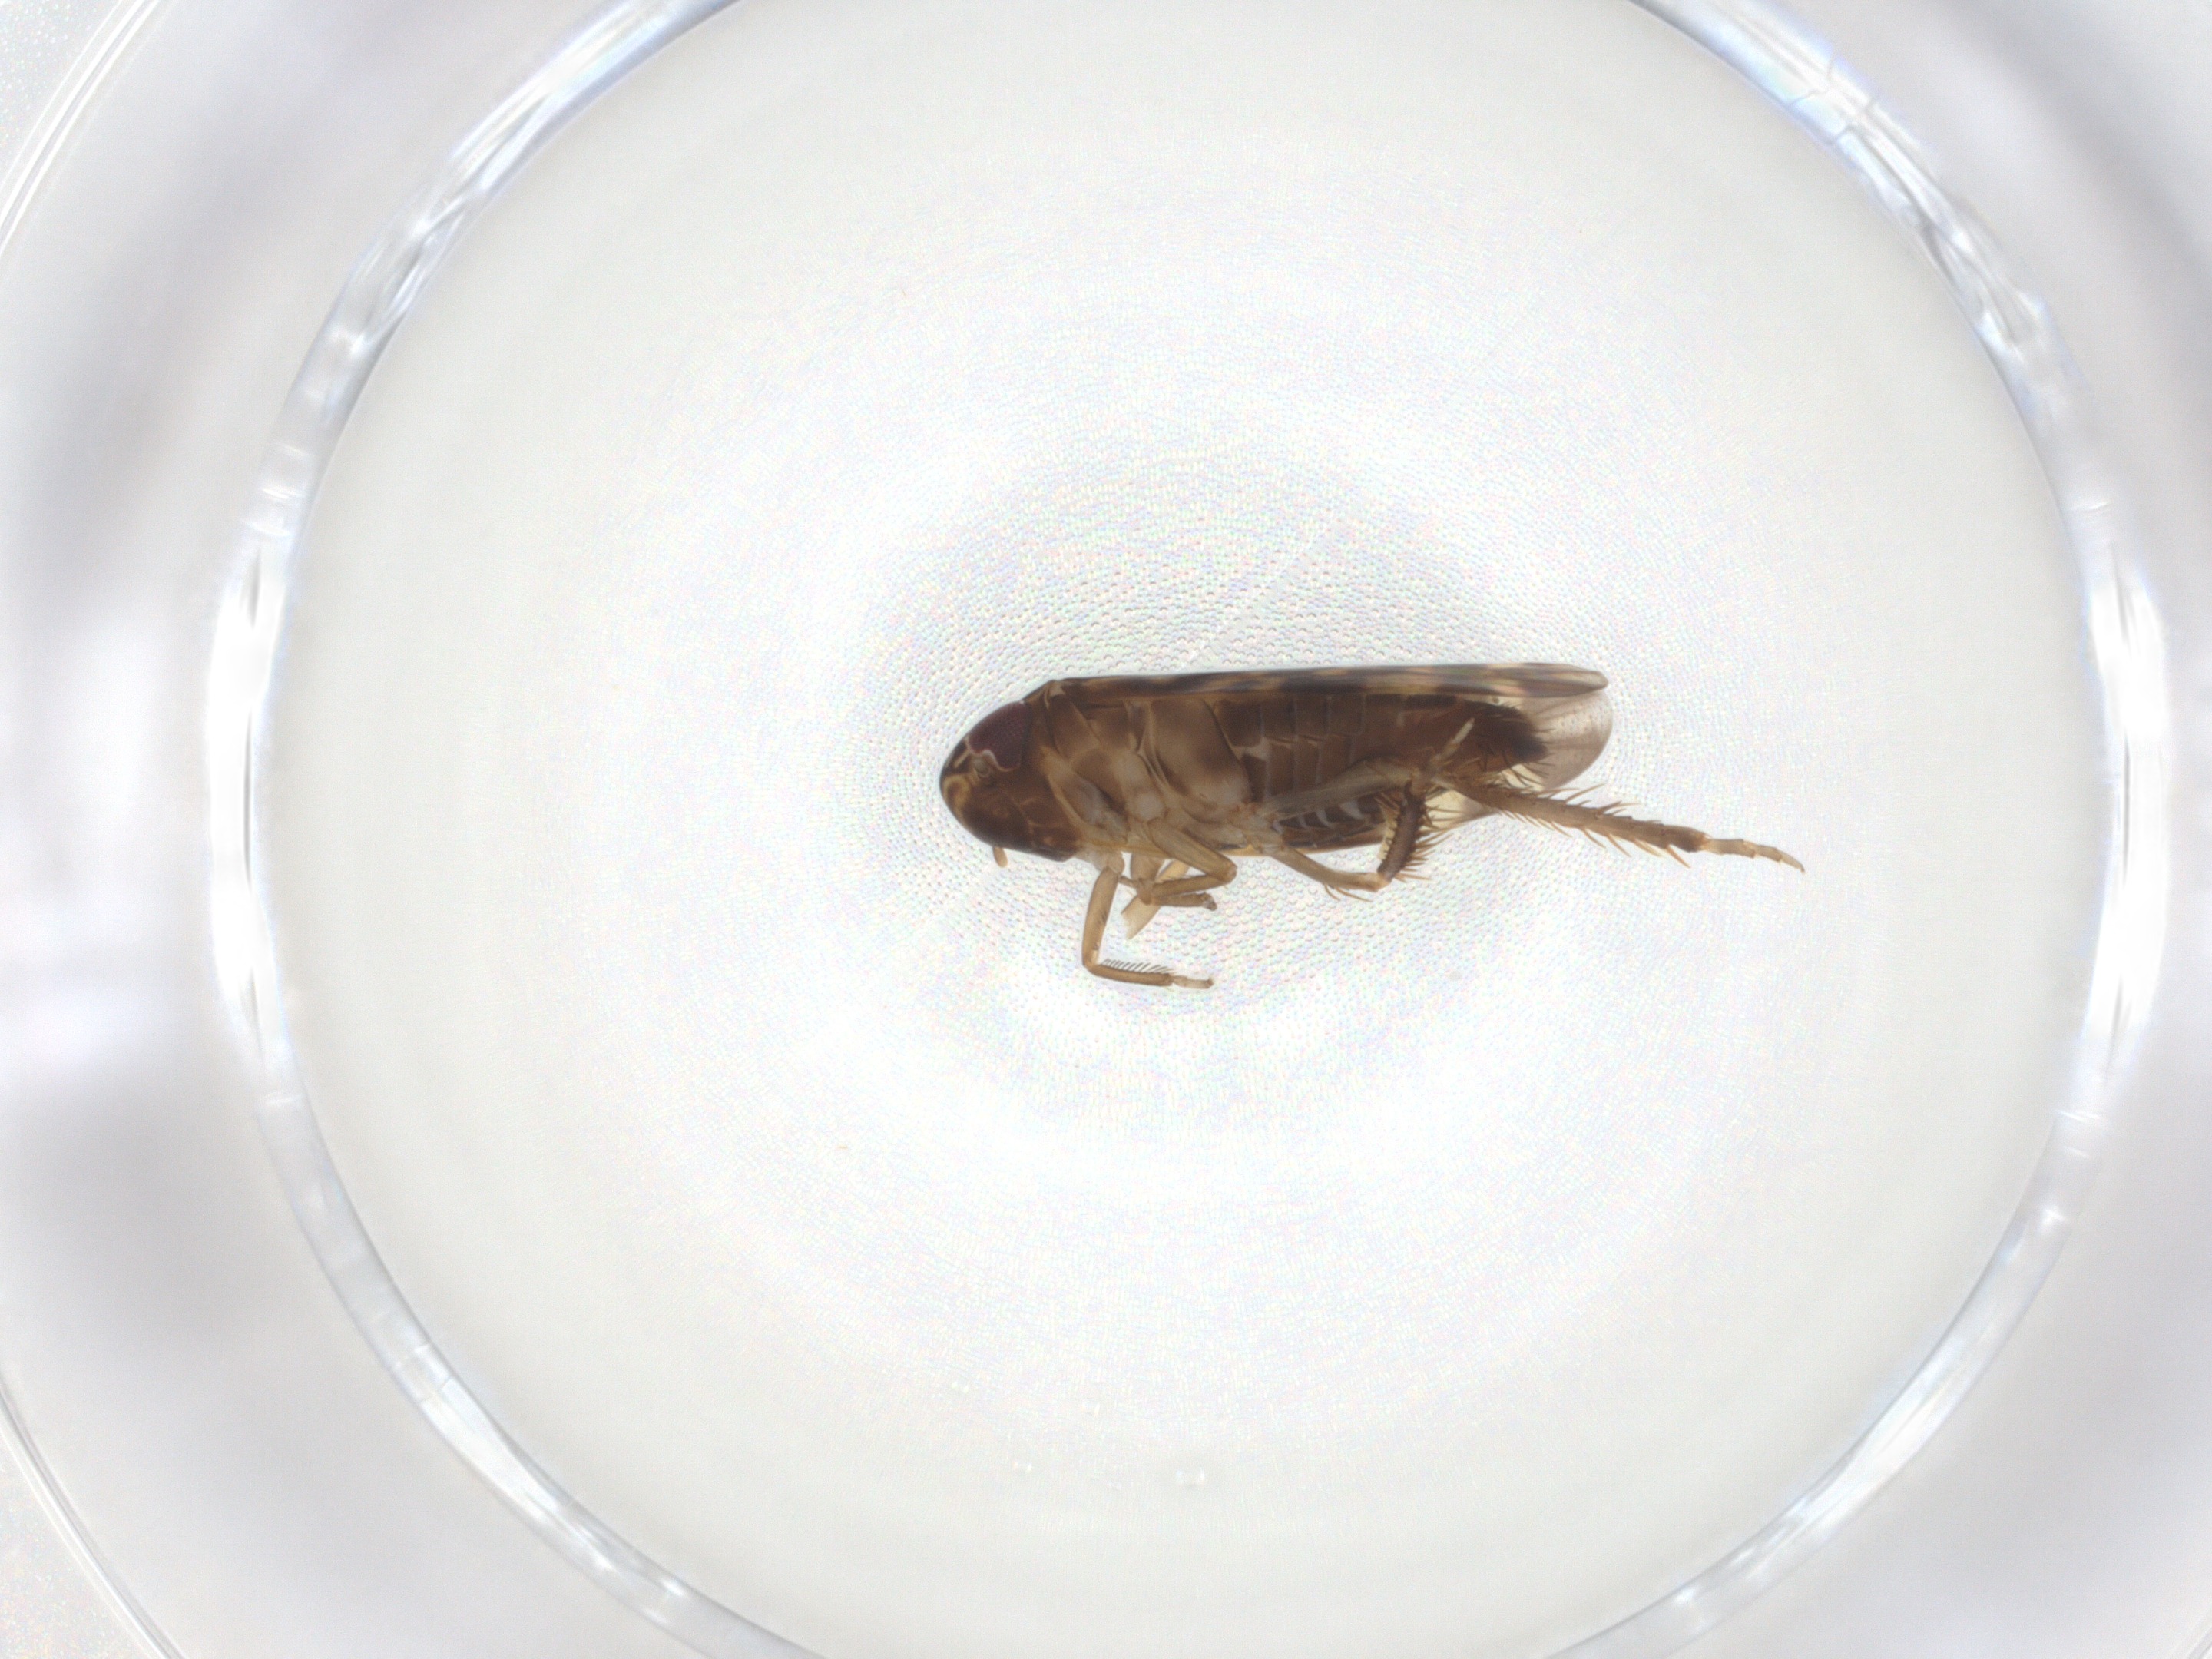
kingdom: Animalia
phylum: Arthropoda
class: Insecta
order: Hemiptera
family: Cicadellidae
